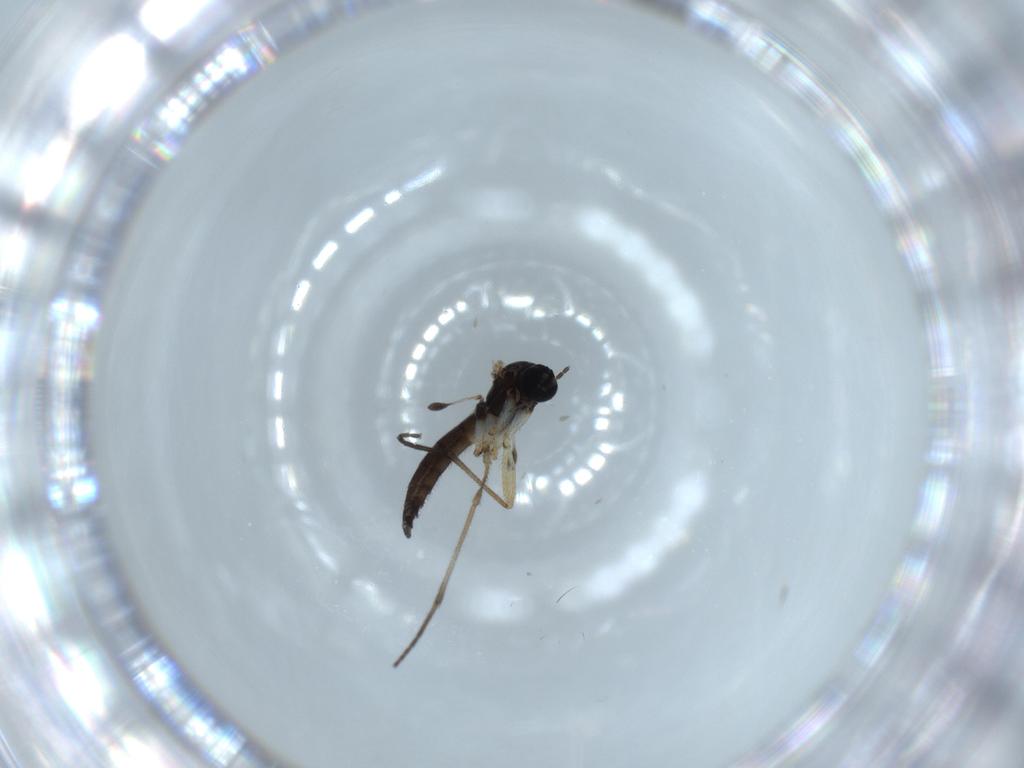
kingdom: Animalia
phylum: Arthropoda
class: Insecta
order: Diptera
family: Sciaridae
